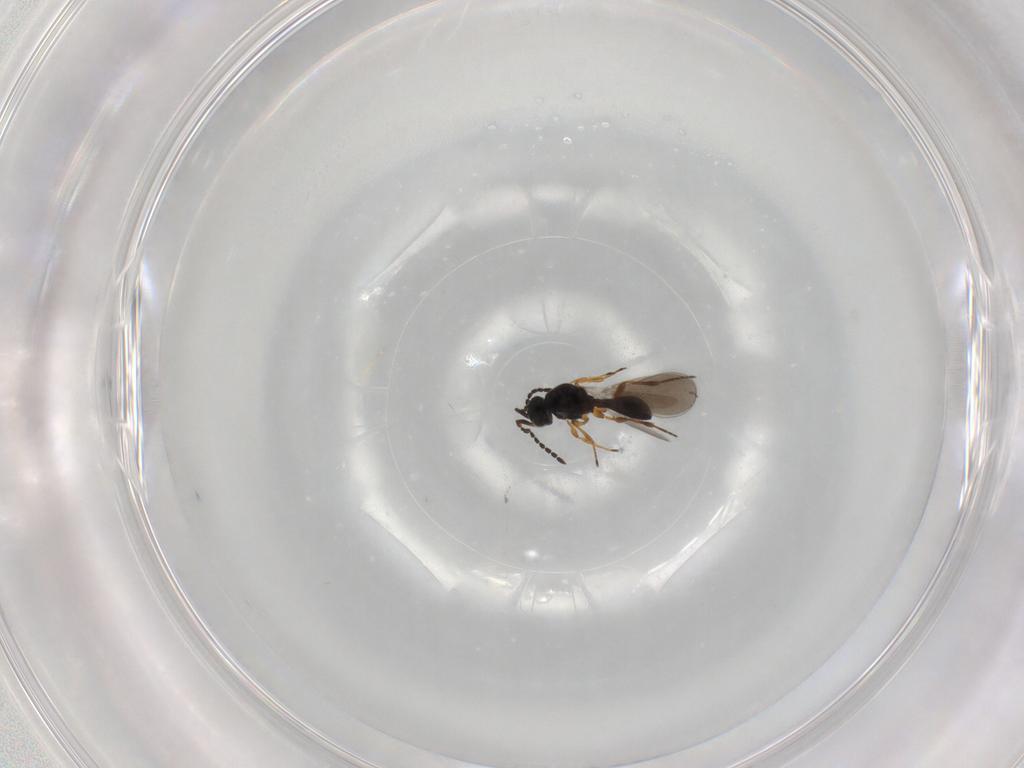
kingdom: Animalia
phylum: Arthropoda
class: Insecta
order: Hymenoptera
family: Platygastridae
